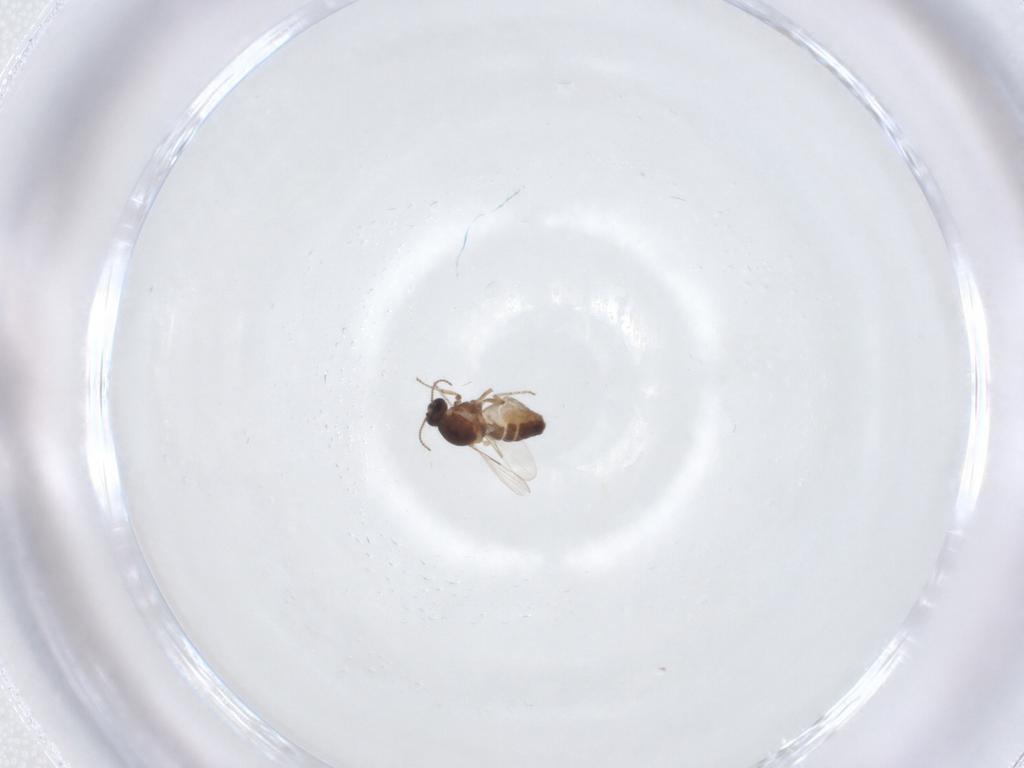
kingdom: Animalia
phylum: Arthropoda
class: Insecta
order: Diptera
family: Ceratopogonidae
